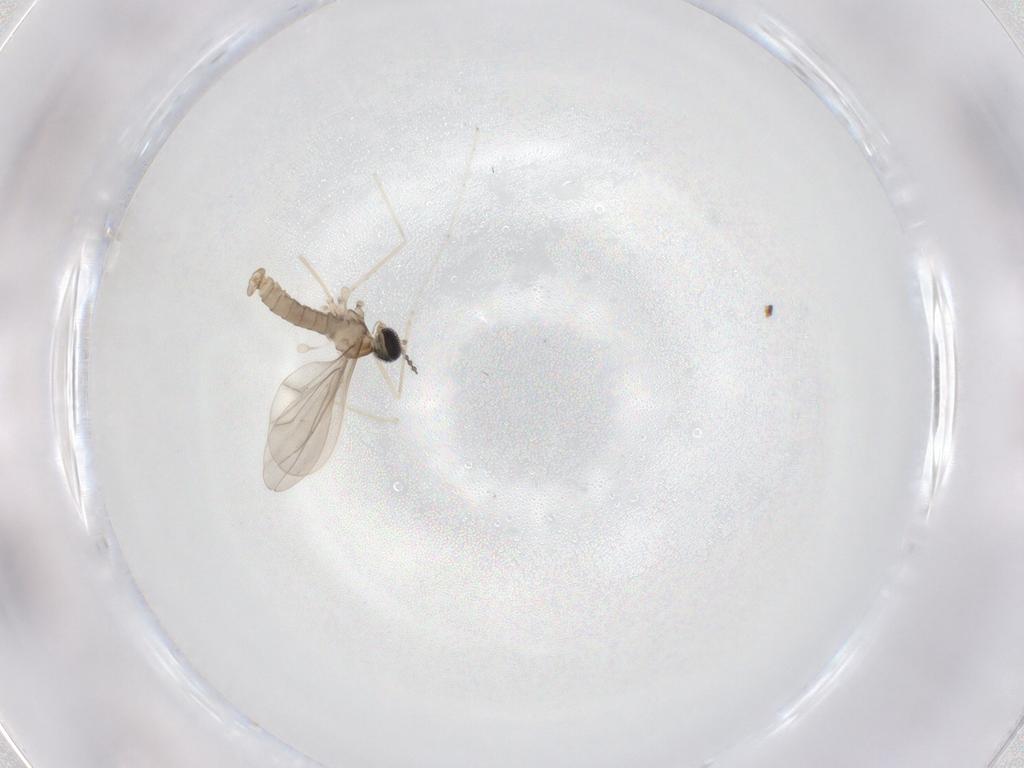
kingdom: Animalia
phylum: Arthropoda
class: Insecta
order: Diptera
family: Cecidomyiidae
